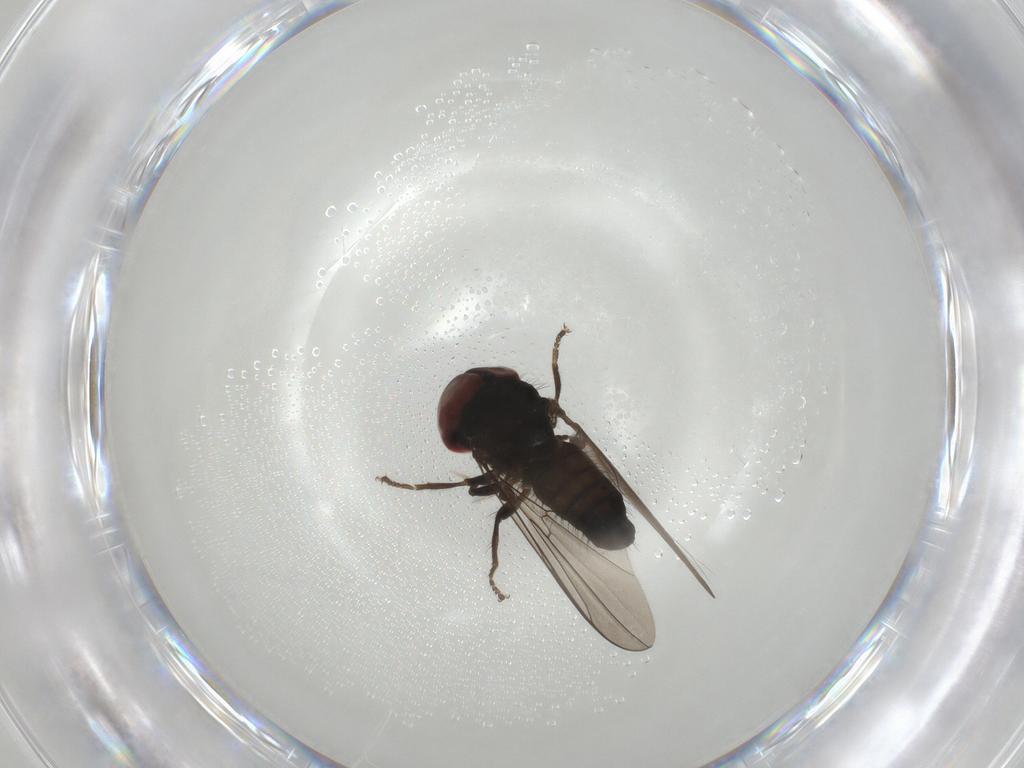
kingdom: Animalia
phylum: Arthropoda
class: Insecta
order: Diptera
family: Pipunculidae
